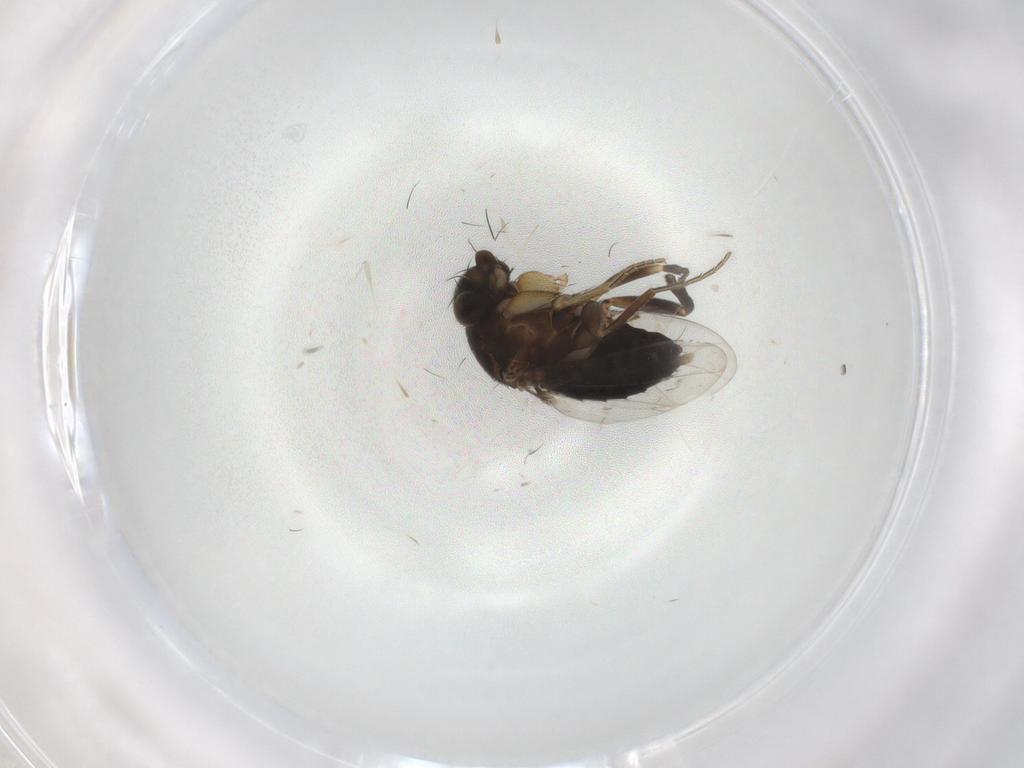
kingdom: Animalia
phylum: Arthropoda
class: Insecta
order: Diptera
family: Phoridae
